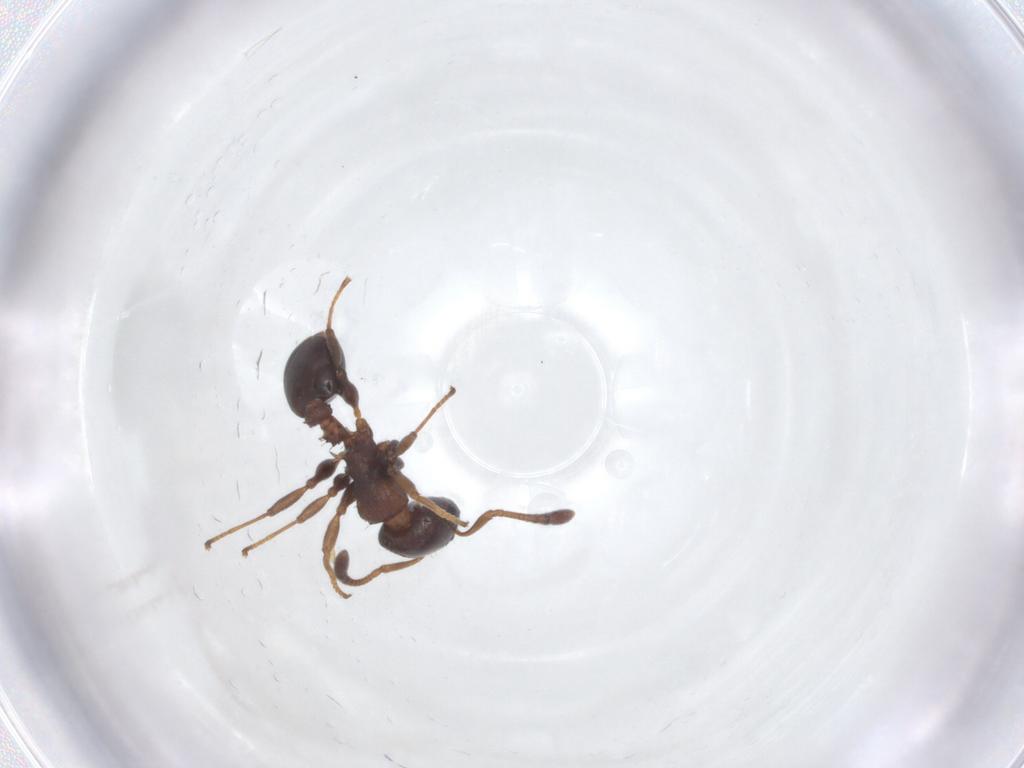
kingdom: Animalia
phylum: Arthropoda
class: Insecta
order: Hymenoptera
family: Formicidae
